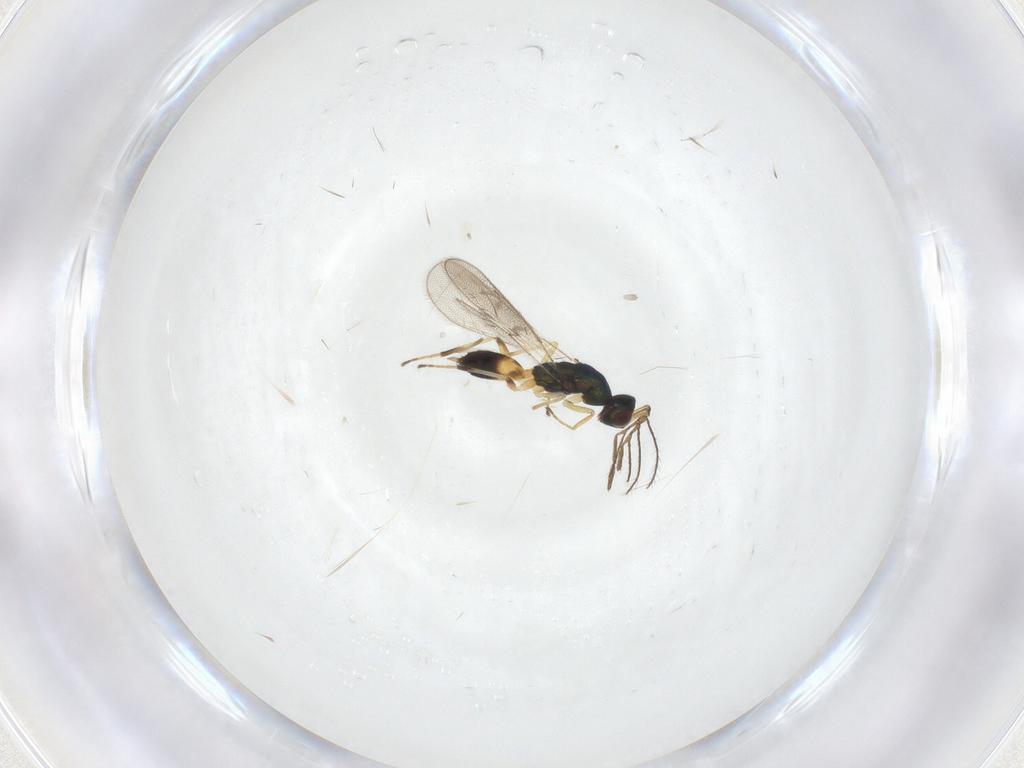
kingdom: Animalia
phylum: Arthropoda
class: Insecta
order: Hymenoptera
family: Eulophidae
